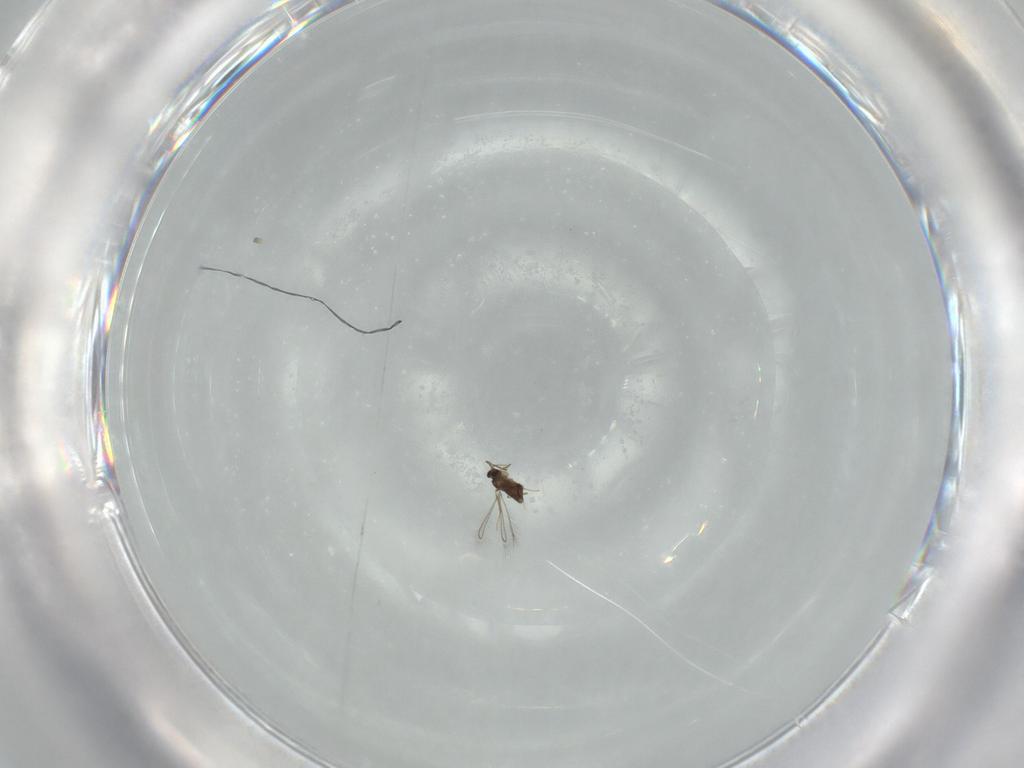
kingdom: Animalia
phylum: Arthropoda
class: Insecta
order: Hymenoptera
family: Mymaridae
